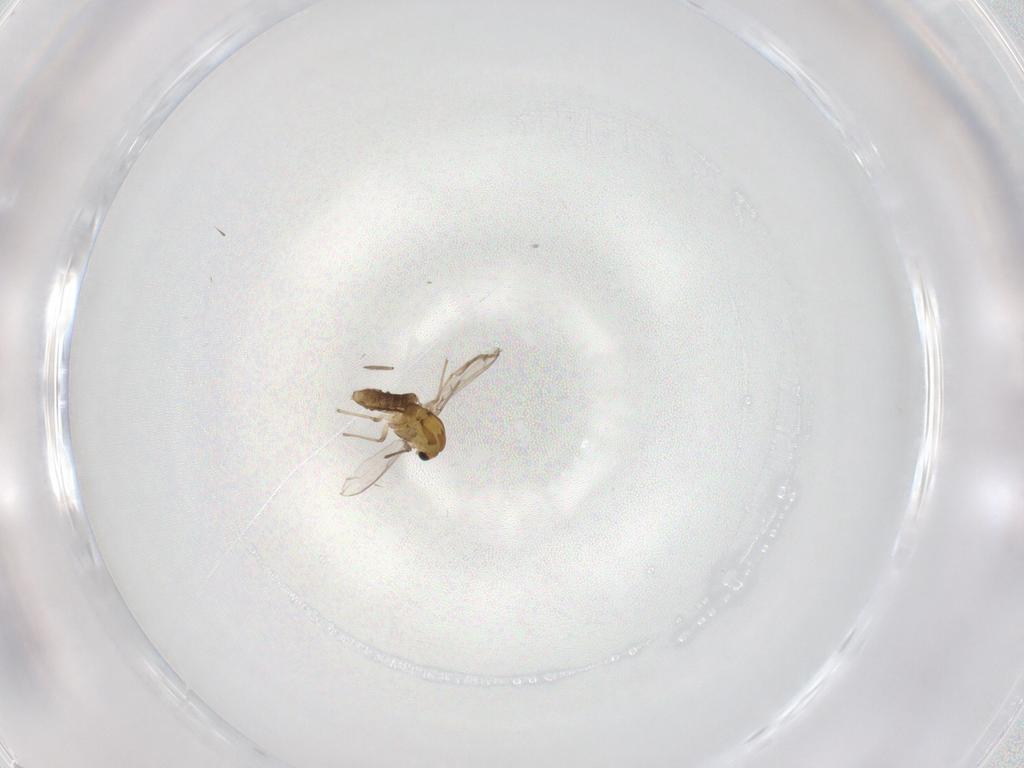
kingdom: Animalia
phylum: Arthropoda
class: Insecta
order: Diptera
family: Chironomidae
